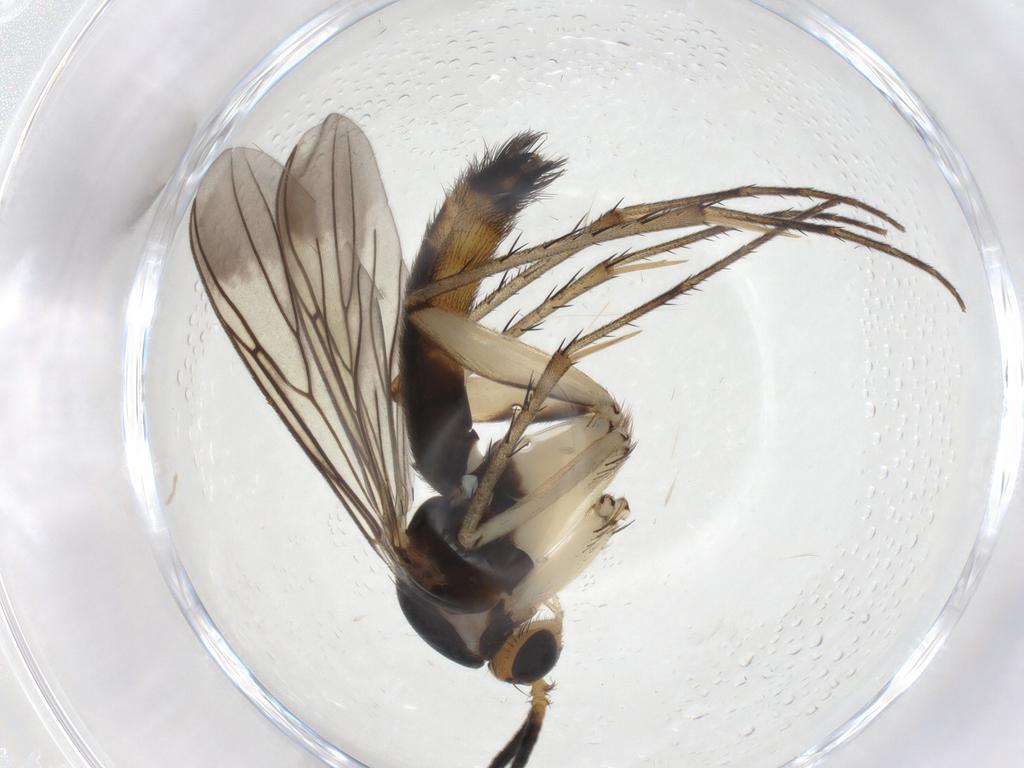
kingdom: Animalia
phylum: Arthropoda
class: Insecta
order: Diptera
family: Mycetophilidae
